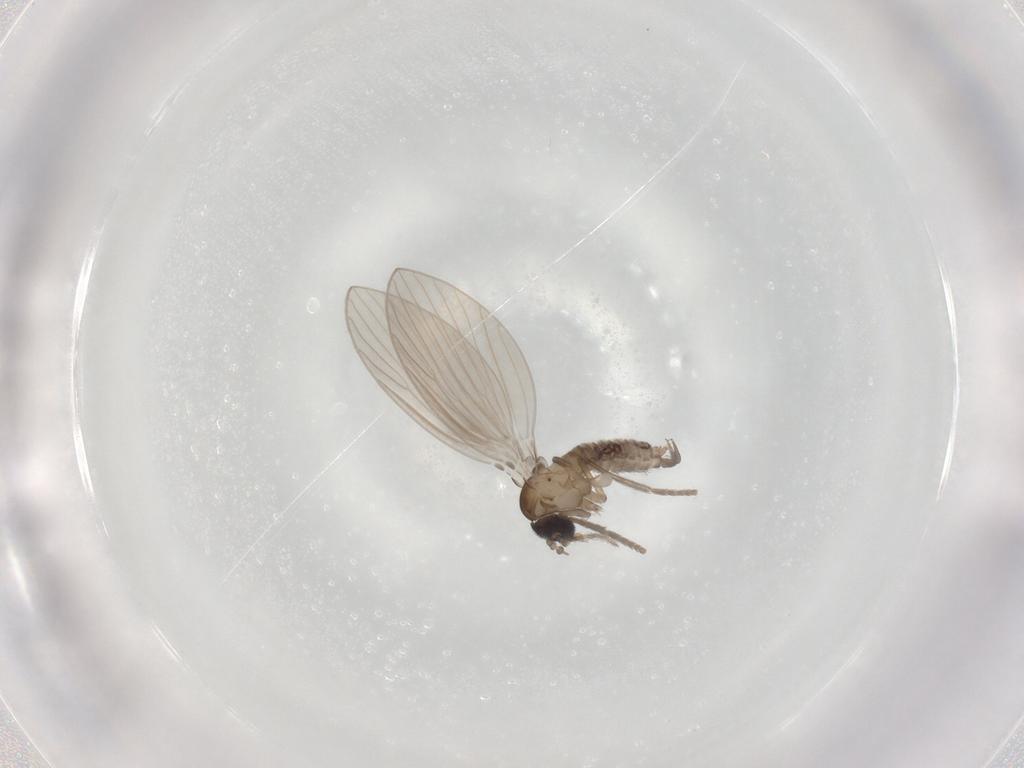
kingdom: Animalia
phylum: Arthropoda
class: Insecta
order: Diptera
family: Psychodidae
